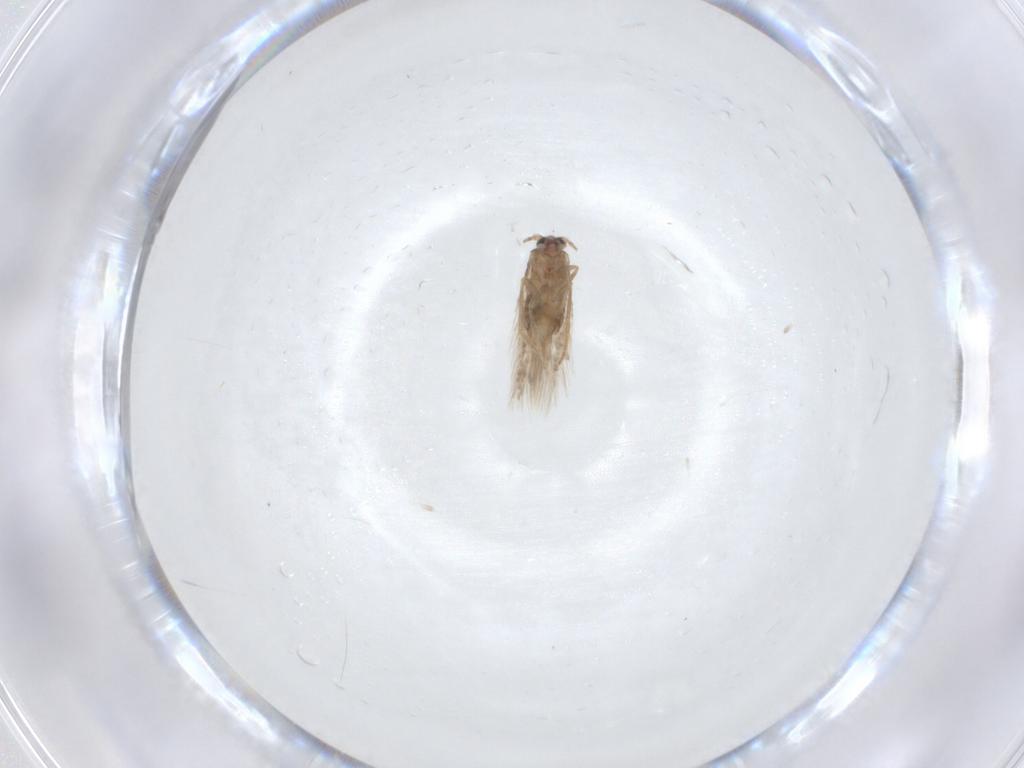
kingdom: Animalia
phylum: Arthropoda
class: Insecta
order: Lepidoptera
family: Nepticulidae
